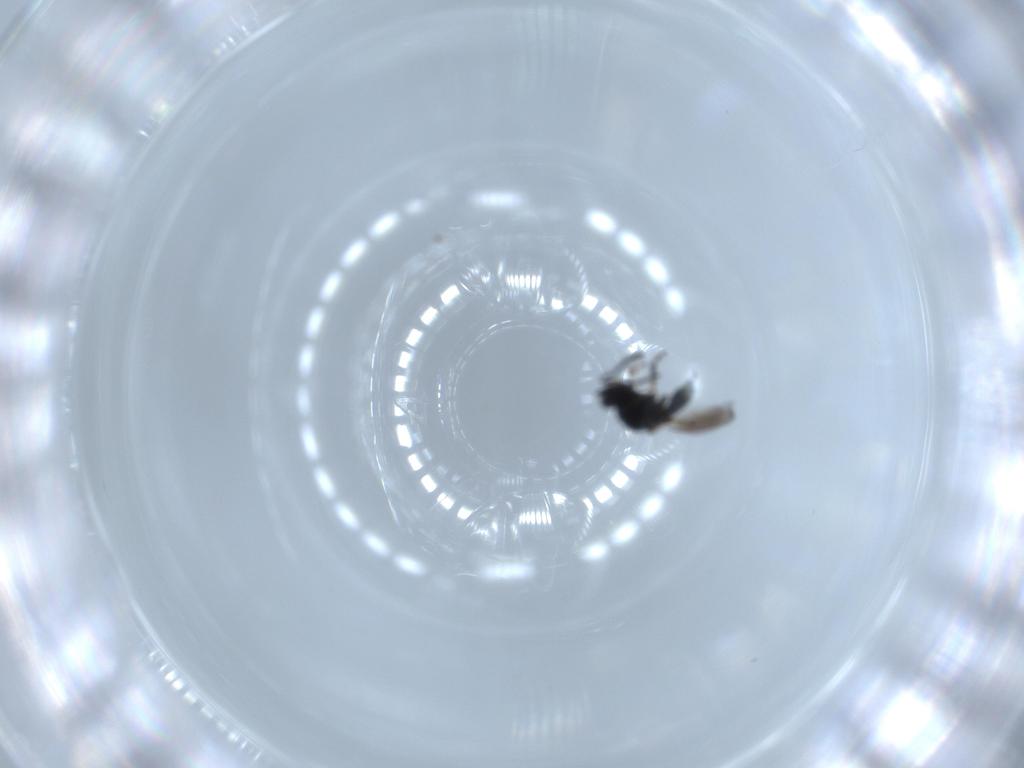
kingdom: Animalia
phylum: Arthropoda
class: Insecta
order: Hymenoptera
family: Platygastridae
